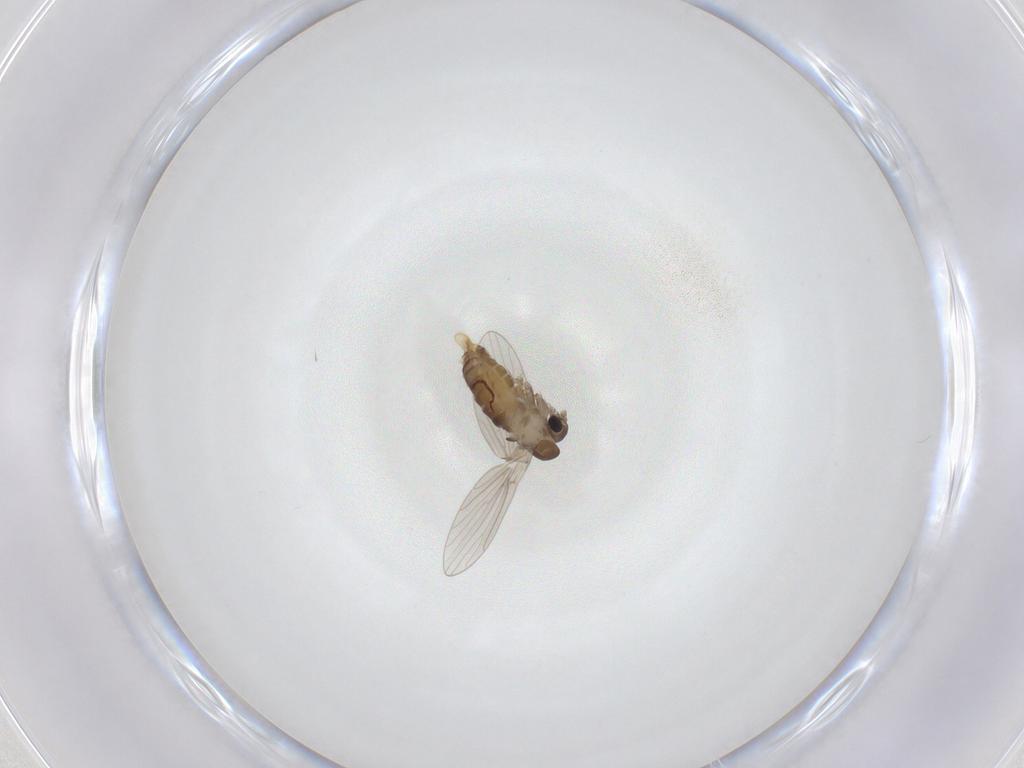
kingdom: Animalia
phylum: Arthropoda
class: Insecta
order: Diptera
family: Psychodidae
